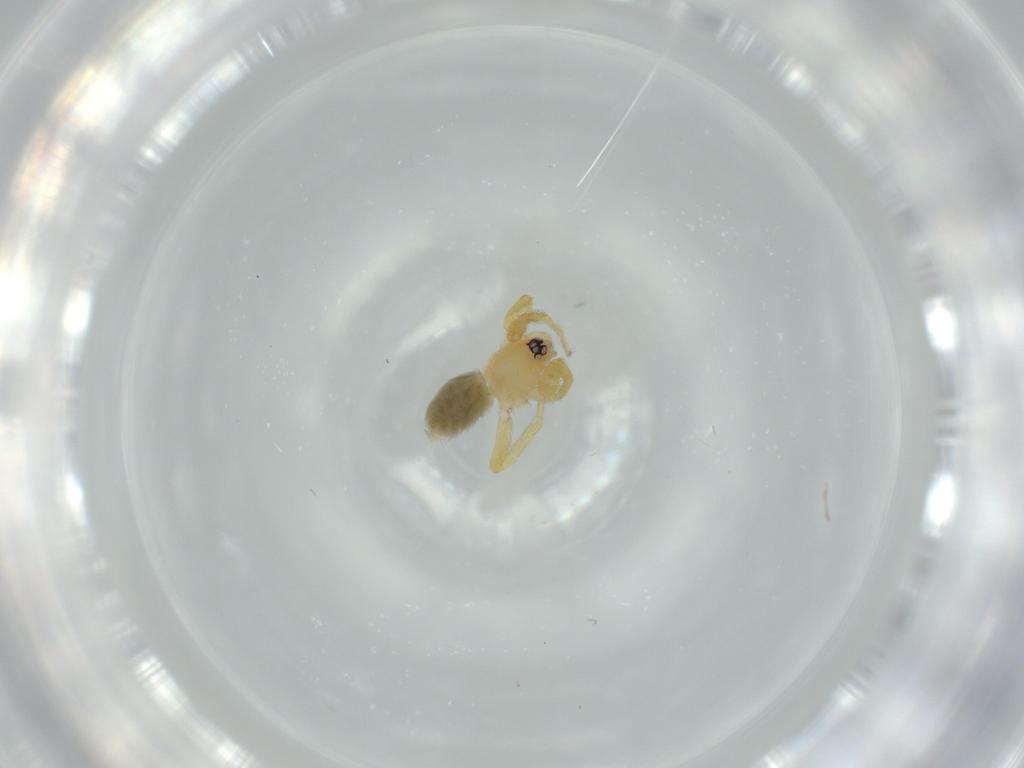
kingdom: Animalia
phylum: Arthropoda
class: Arachnida
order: Araneae
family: Oonopidae
